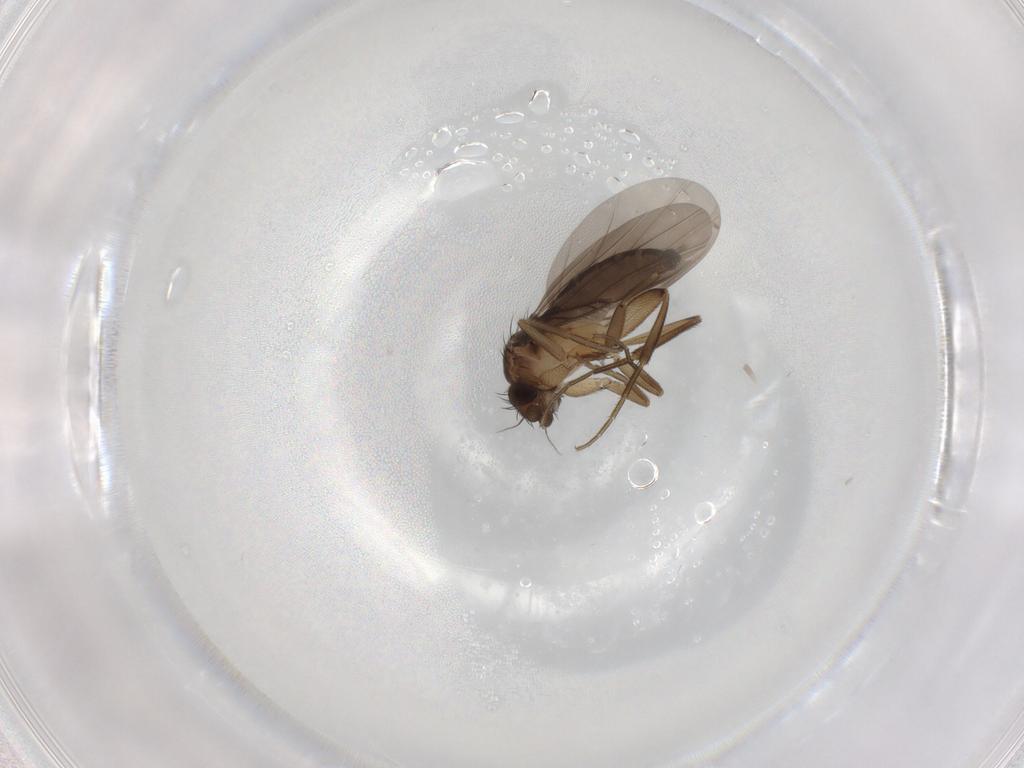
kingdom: Animalia
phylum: Arthropoda
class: Insecta
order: Diptera
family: Phoridae
